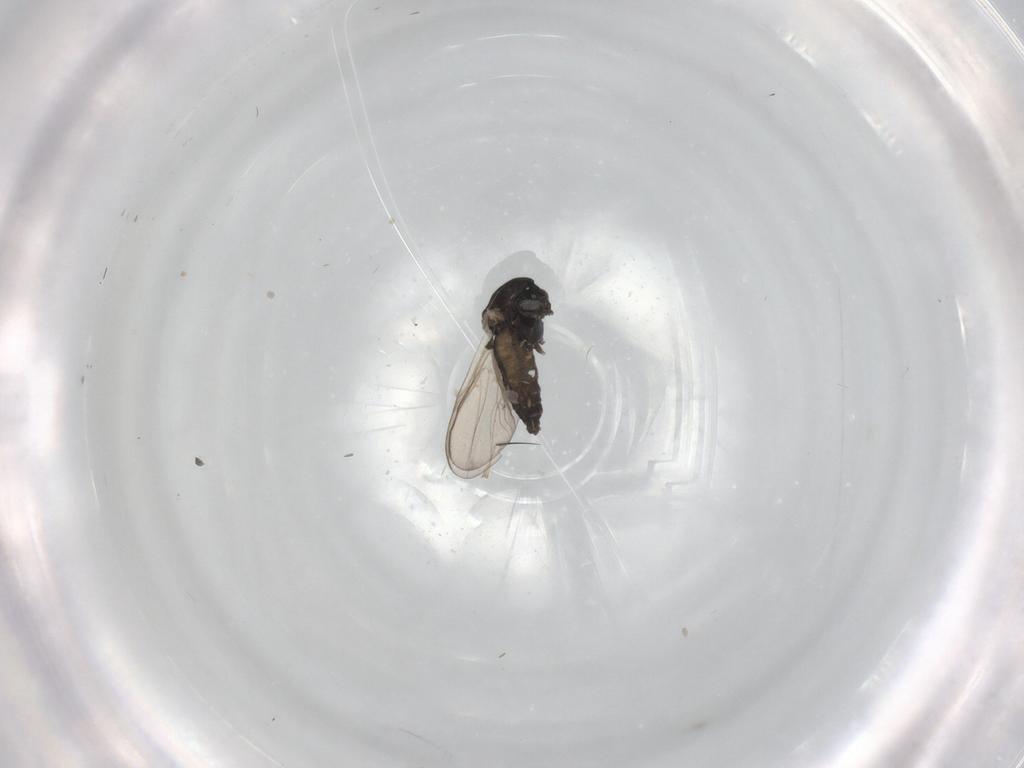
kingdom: Animalia
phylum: Arthropoda
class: Insecta
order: Diptera
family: Chironomidae
